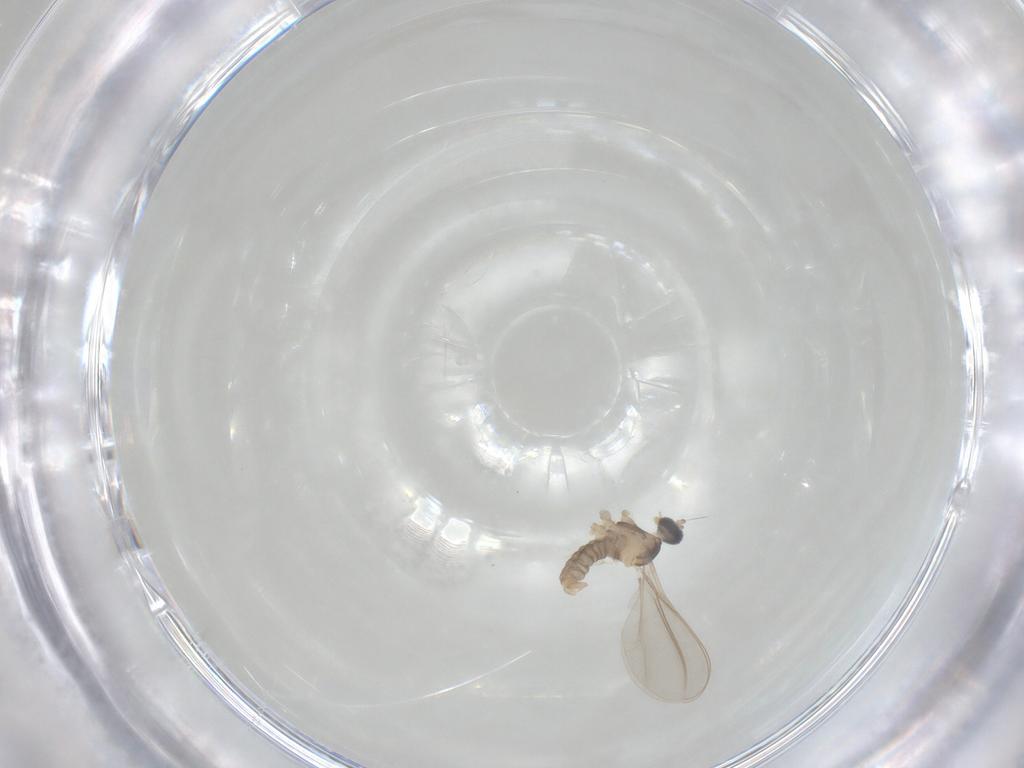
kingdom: Animalia
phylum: Arthropoda
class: Insecta
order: Diptera
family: Cecidomyiidae
